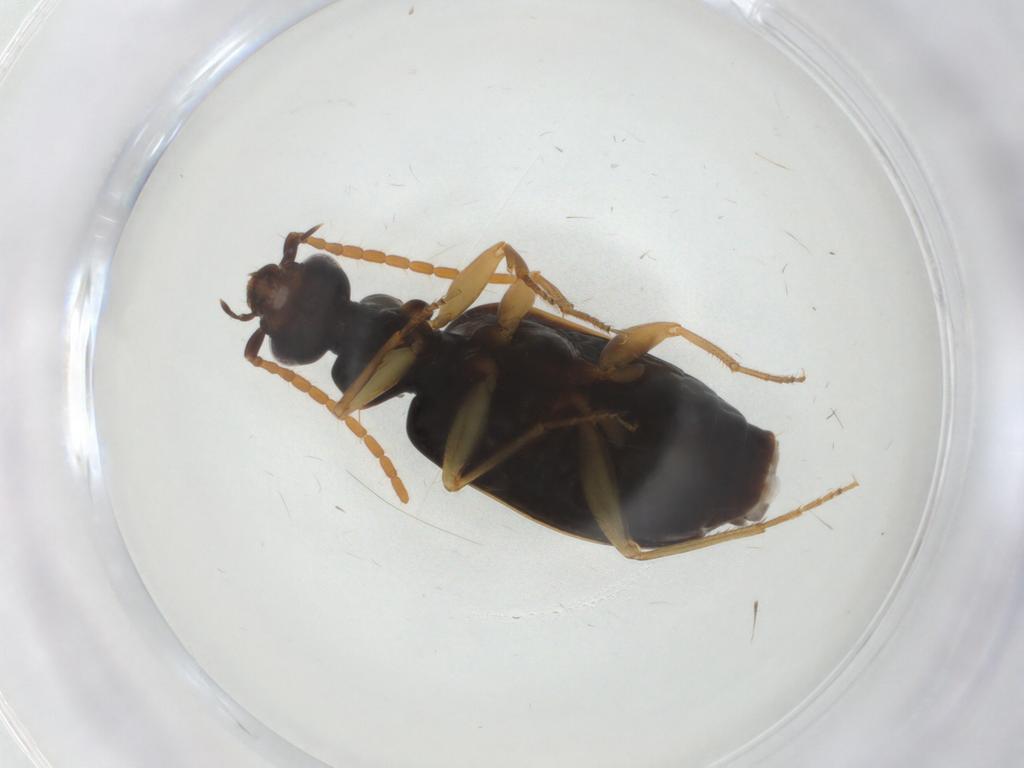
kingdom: Animalia
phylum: Arthropoda
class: Insecta
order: Coleoptera
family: Carabidae
